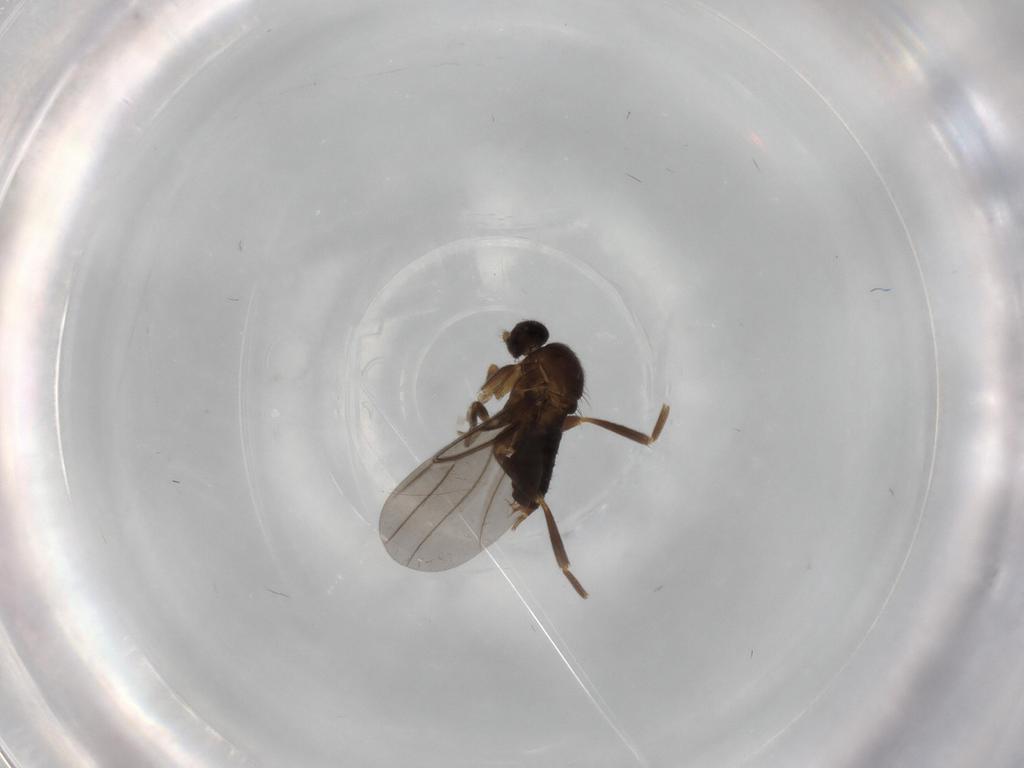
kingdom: Animalia
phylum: Arthropoda
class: Insecta
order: Diptera
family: Phoridae
